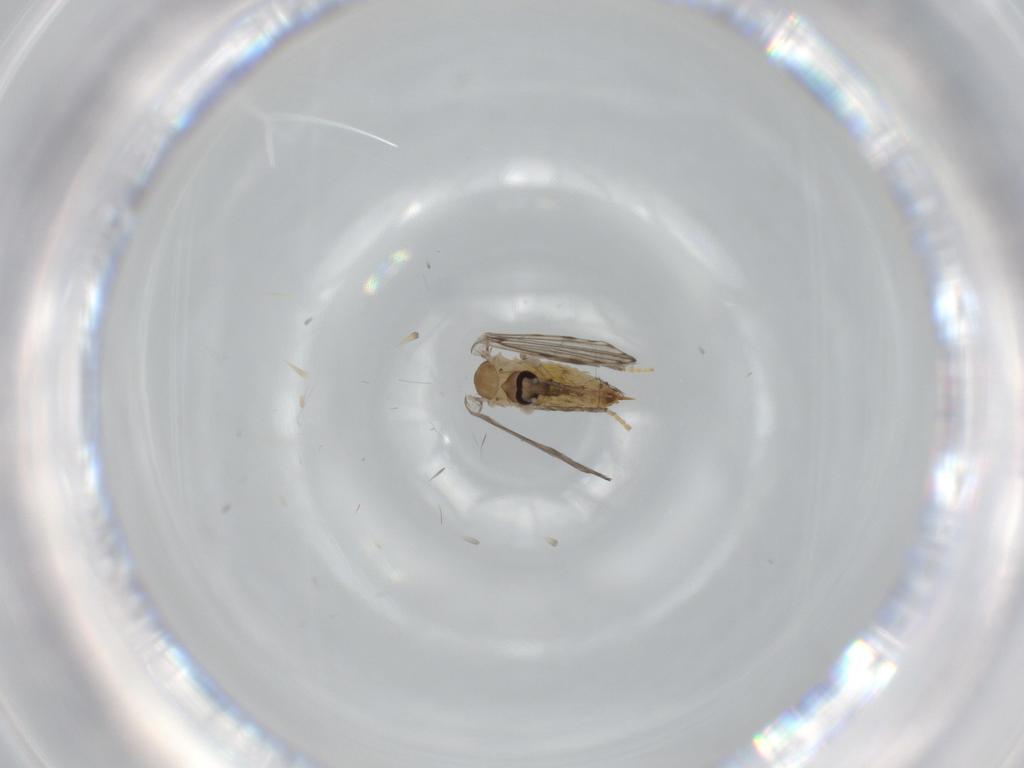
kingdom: Animalia
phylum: Arthropoda
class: Insecta
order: Diptera
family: Psychodidae
